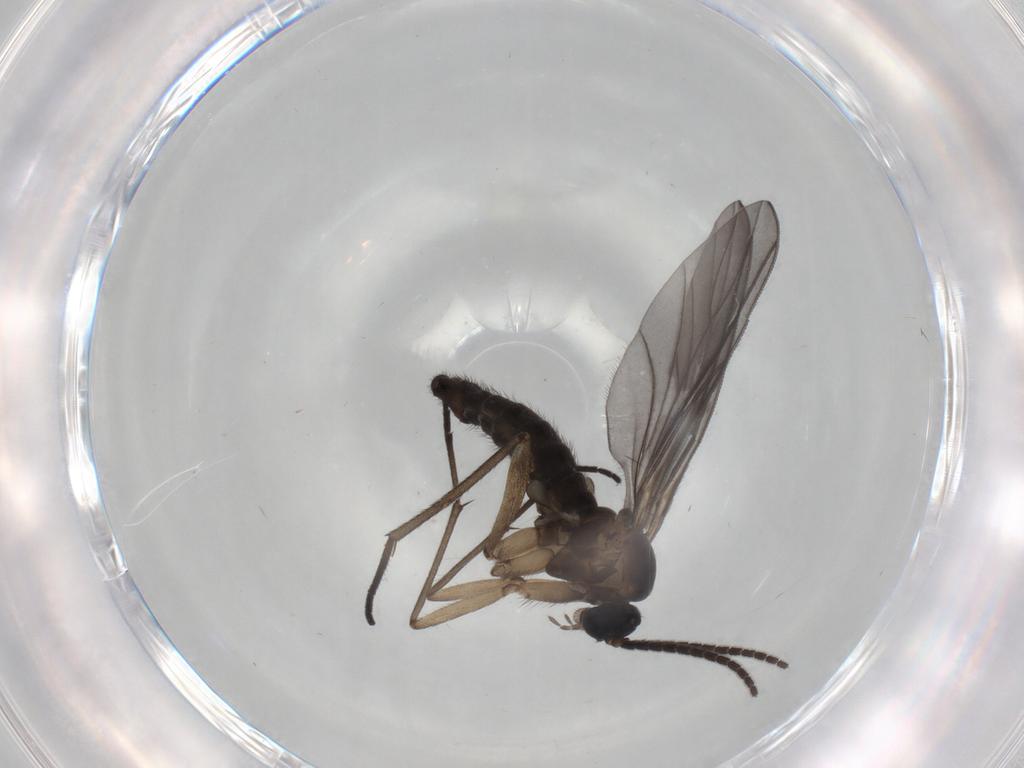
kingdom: Animalia
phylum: Arthropoda
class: Insecta
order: Diptera
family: Sciaridae
